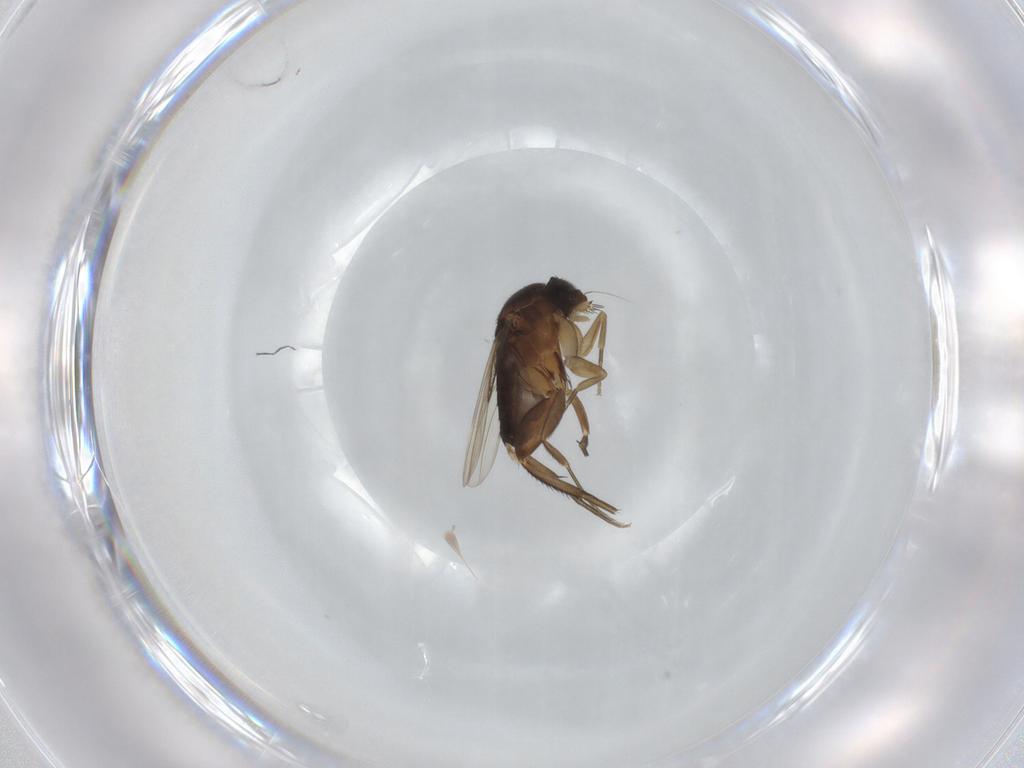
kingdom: Animalia
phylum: Arthropoda
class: Insecta
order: Diptera
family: Phoridae
